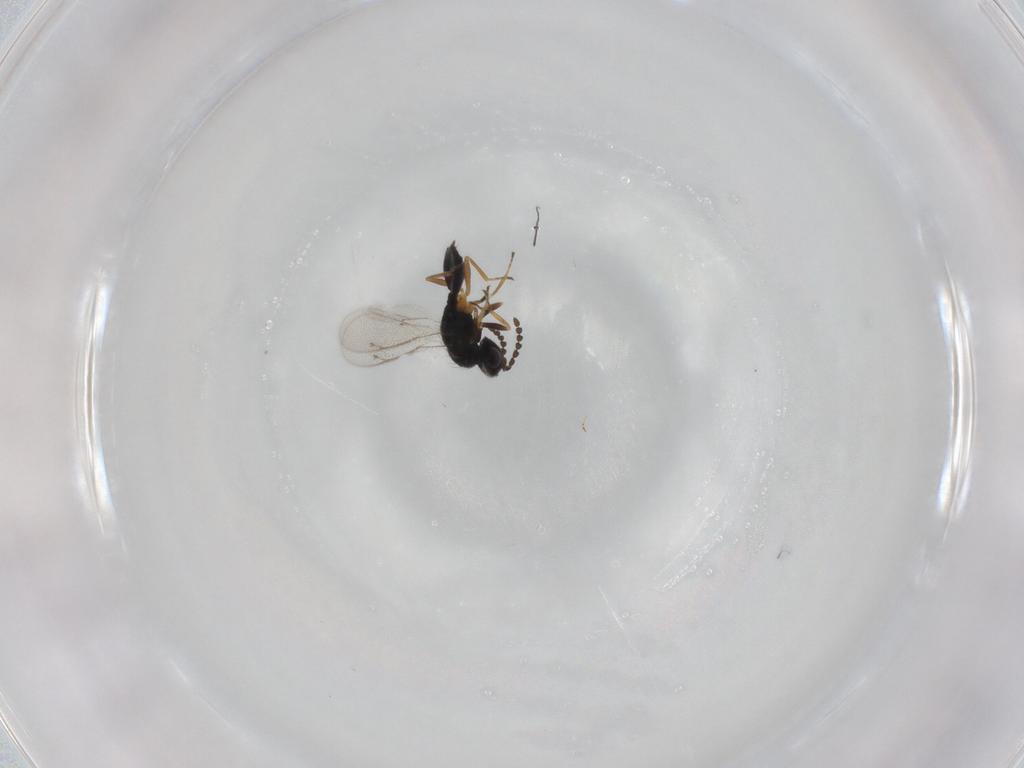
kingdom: Animalia
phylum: Arthropoda
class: Insecta
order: Hymenoptera
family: Eulophidae
